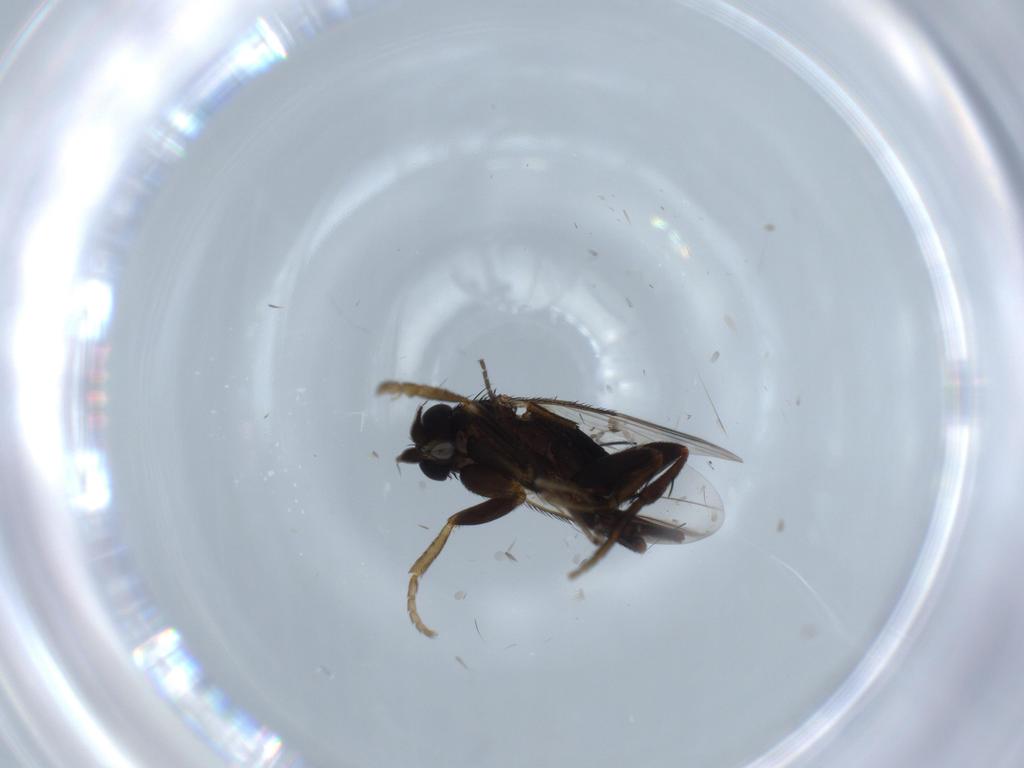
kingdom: Animalia
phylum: Arthropoda
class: Insecta
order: Diptera
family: Phoridae
